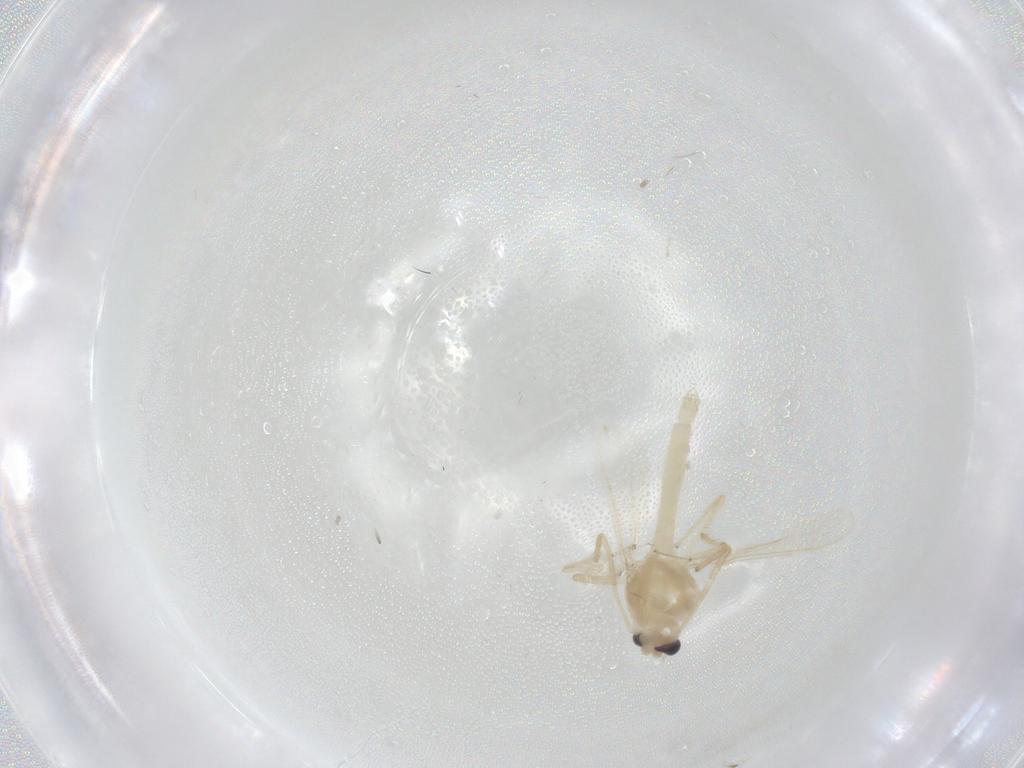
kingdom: Animalia
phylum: Arthropoda
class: Insecta
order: Diptera
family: Chironomidae
